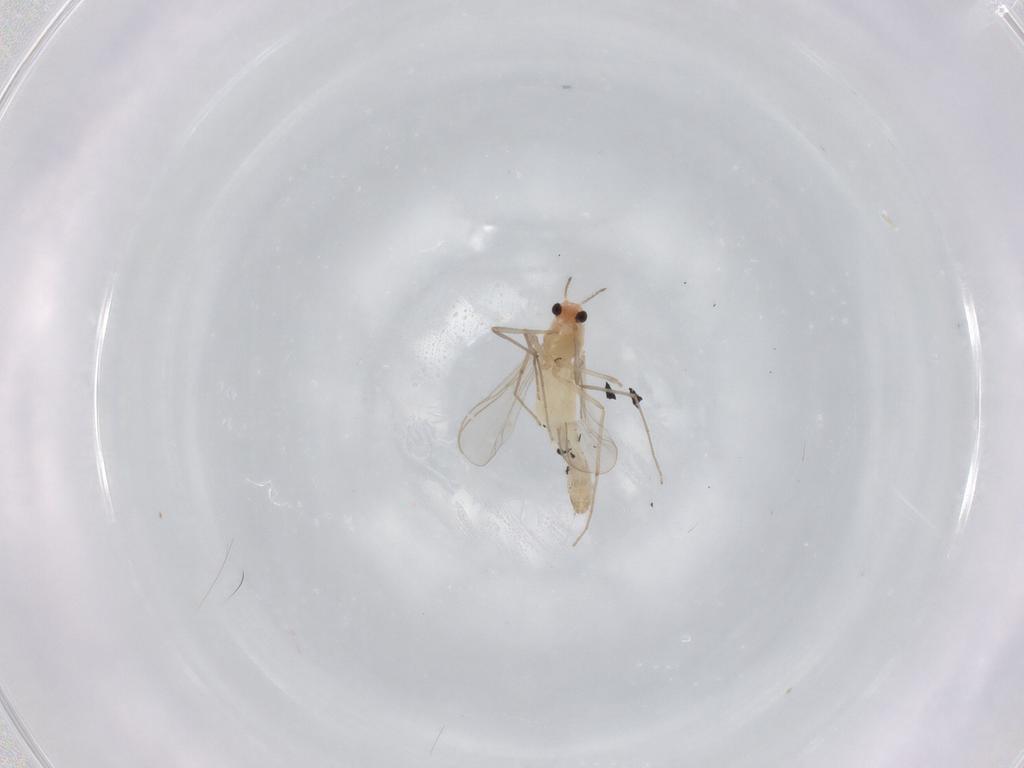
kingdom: Animalia
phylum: Arthropoda
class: Insecta
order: Diptera
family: Chironomidae
